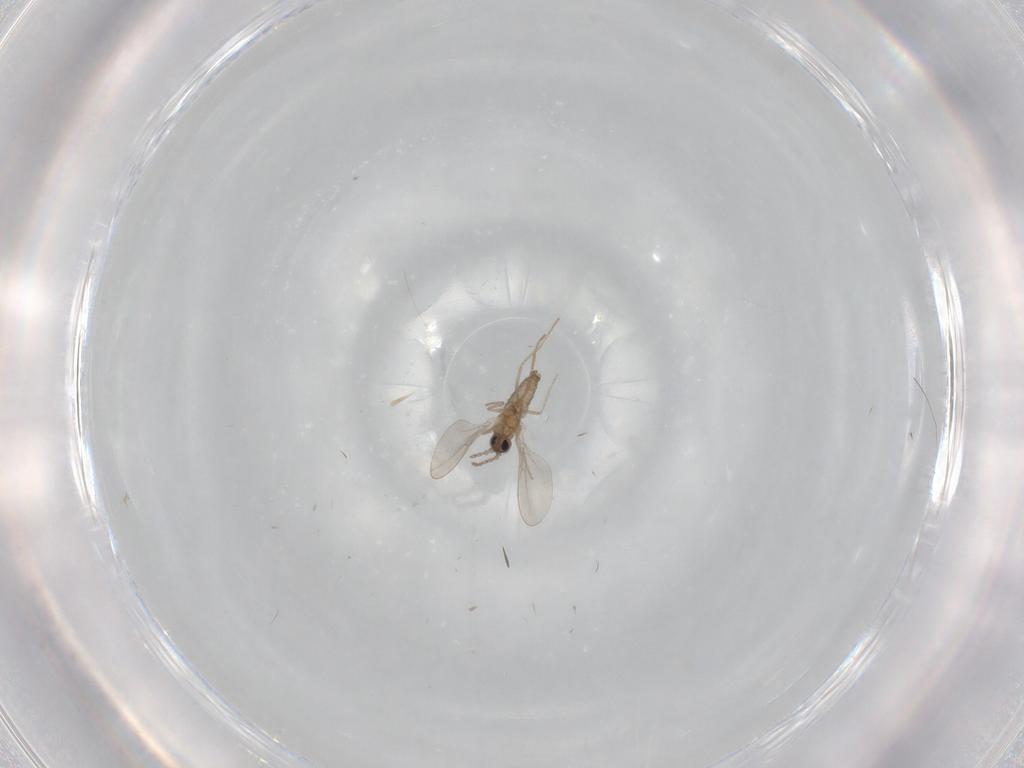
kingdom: Animalia
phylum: Arthropoda
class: Insecta
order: Diptera
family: Cecidomyiidae
